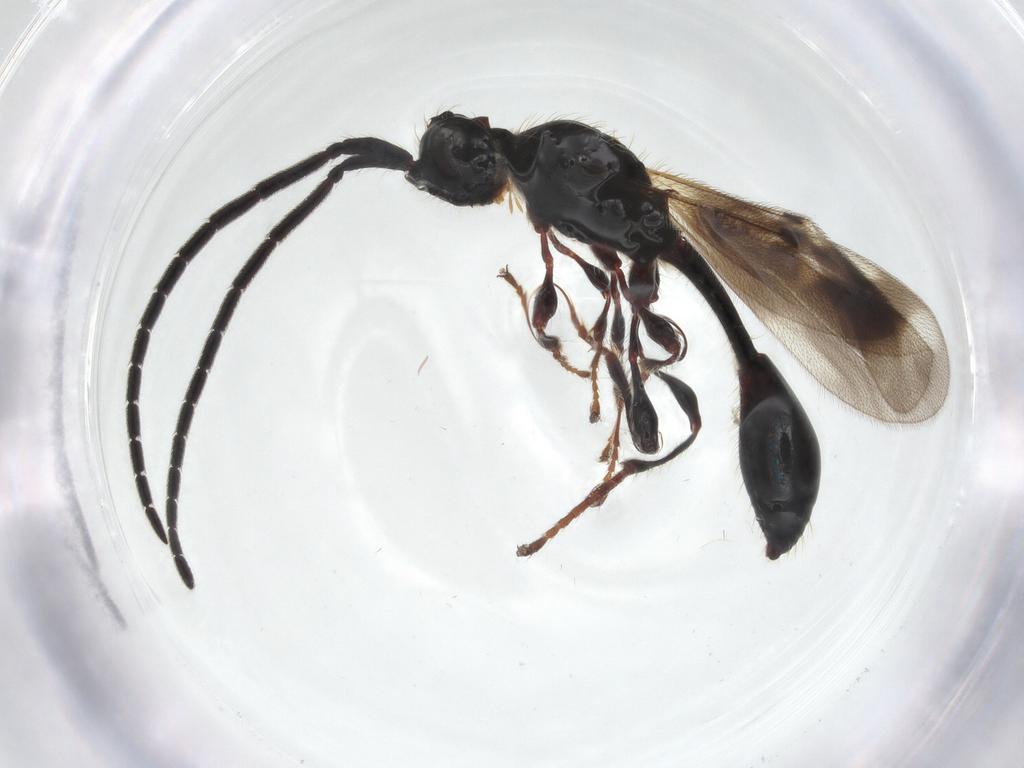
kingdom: Animalia
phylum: Arthropoda
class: Insecta
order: Hymenoptera
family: Diapriidae
